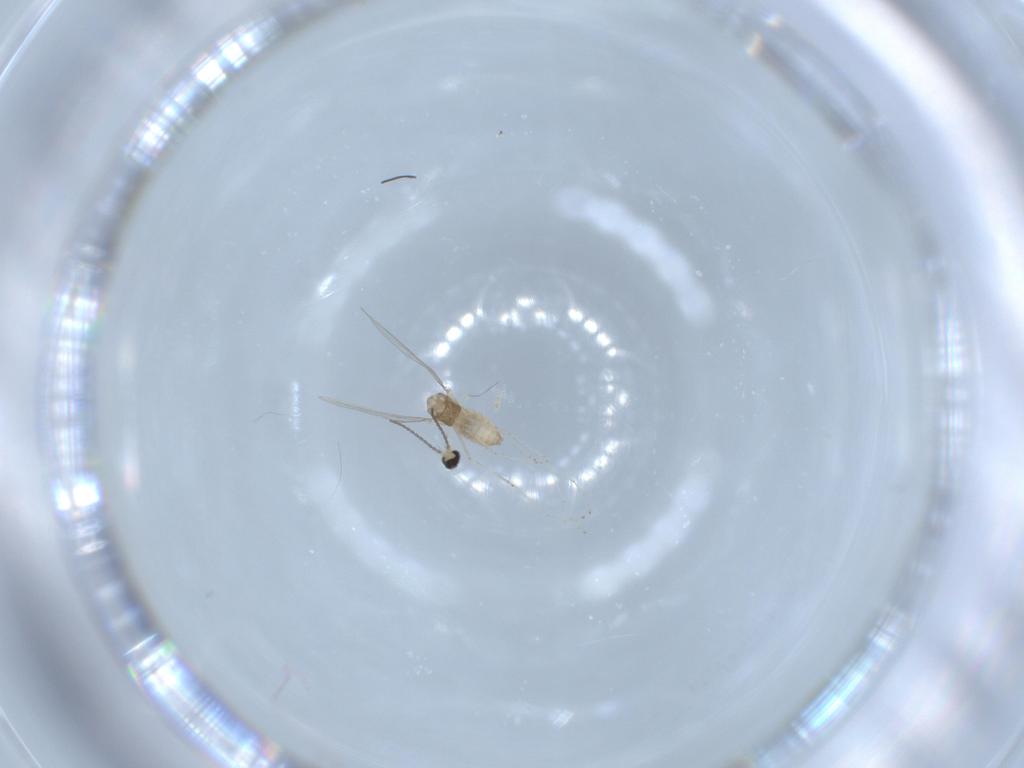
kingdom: Animalia
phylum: Arthropoda
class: Insecta
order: Diptera
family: Cecidomyiidae
